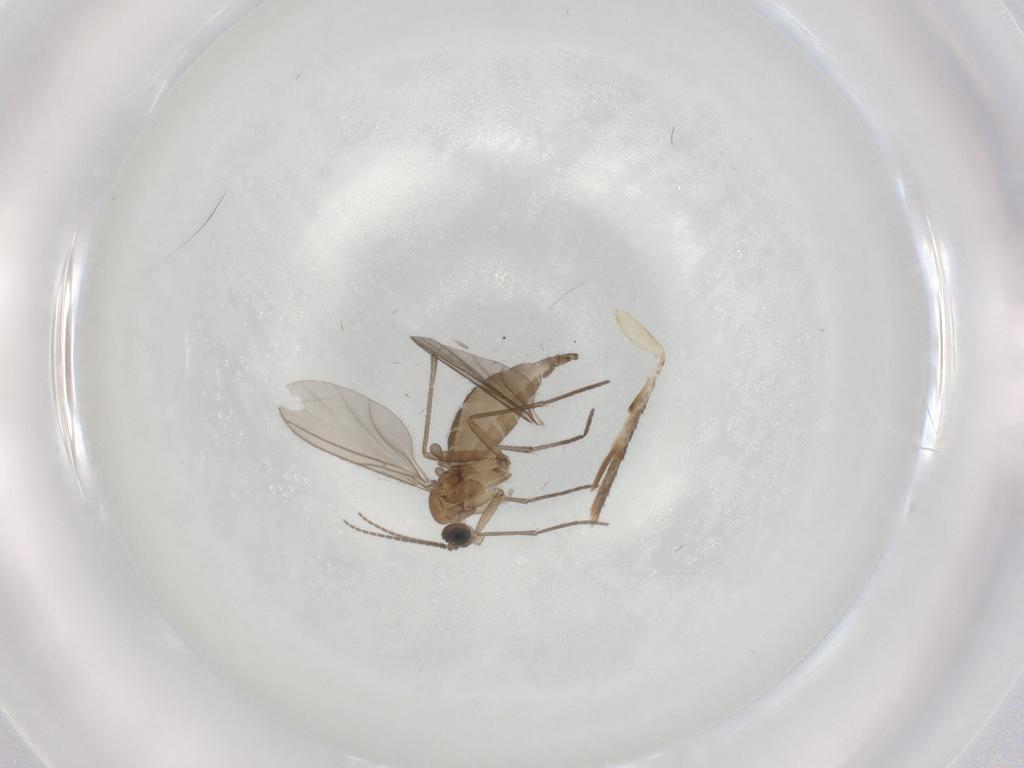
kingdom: Animalia
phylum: Arthropoda
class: Insecta
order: Diptera
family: Sciaridae
